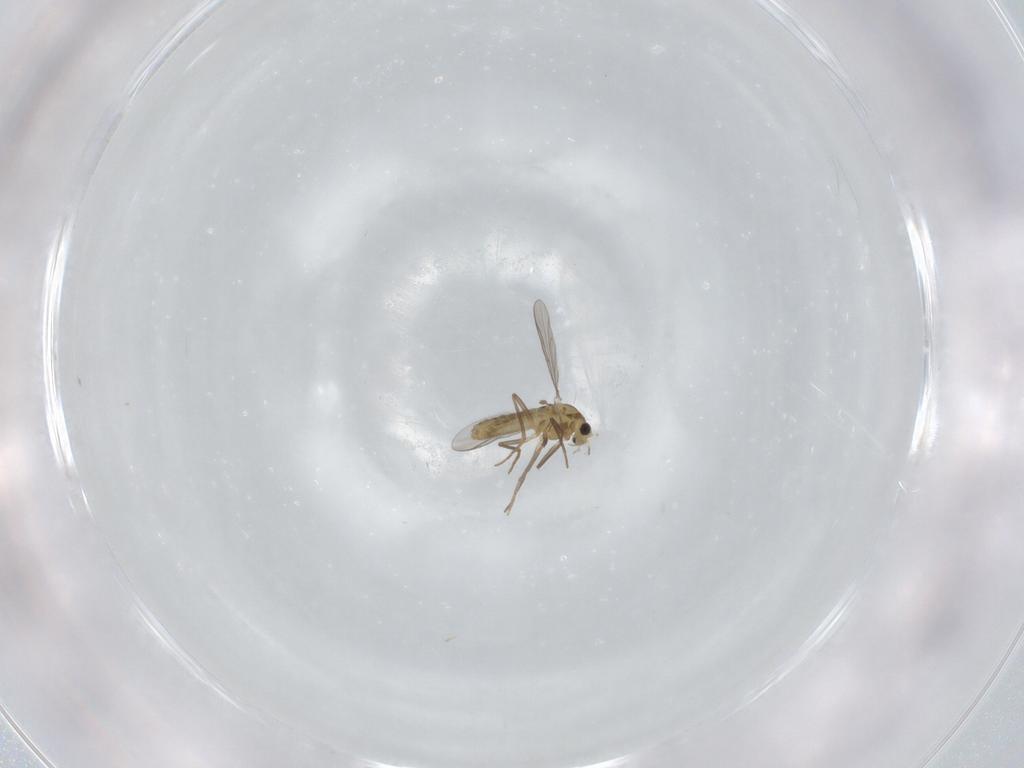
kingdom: Animalia
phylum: Arthropoda
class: Insecta
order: Diptera
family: Chironomidae
